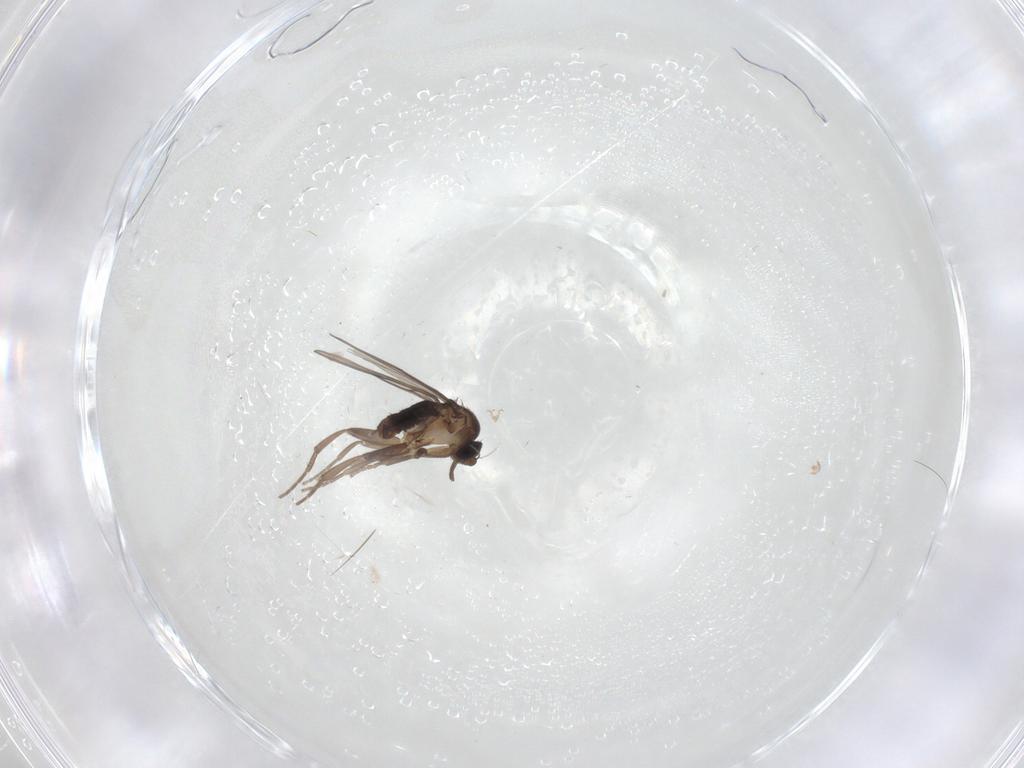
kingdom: Animalia
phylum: Arthropoda
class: Insecta
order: Diptera
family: Phoridae
